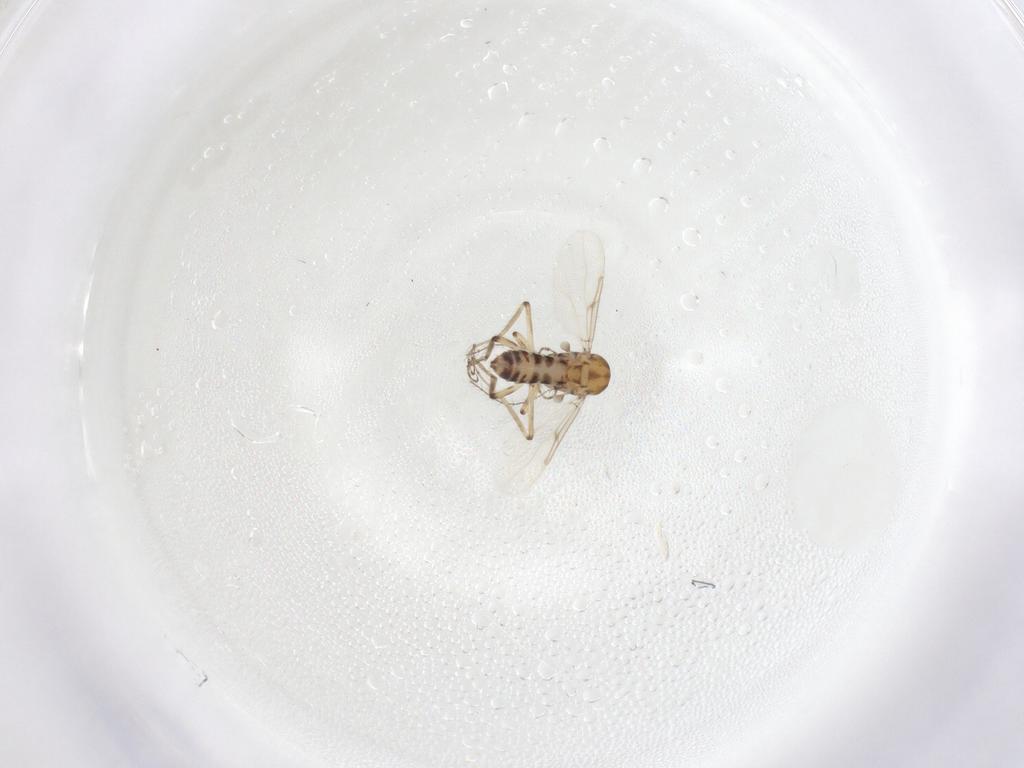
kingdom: Animalia
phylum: Arthropoda
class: Insecta
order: Diptera
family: Ceratopogonidae
